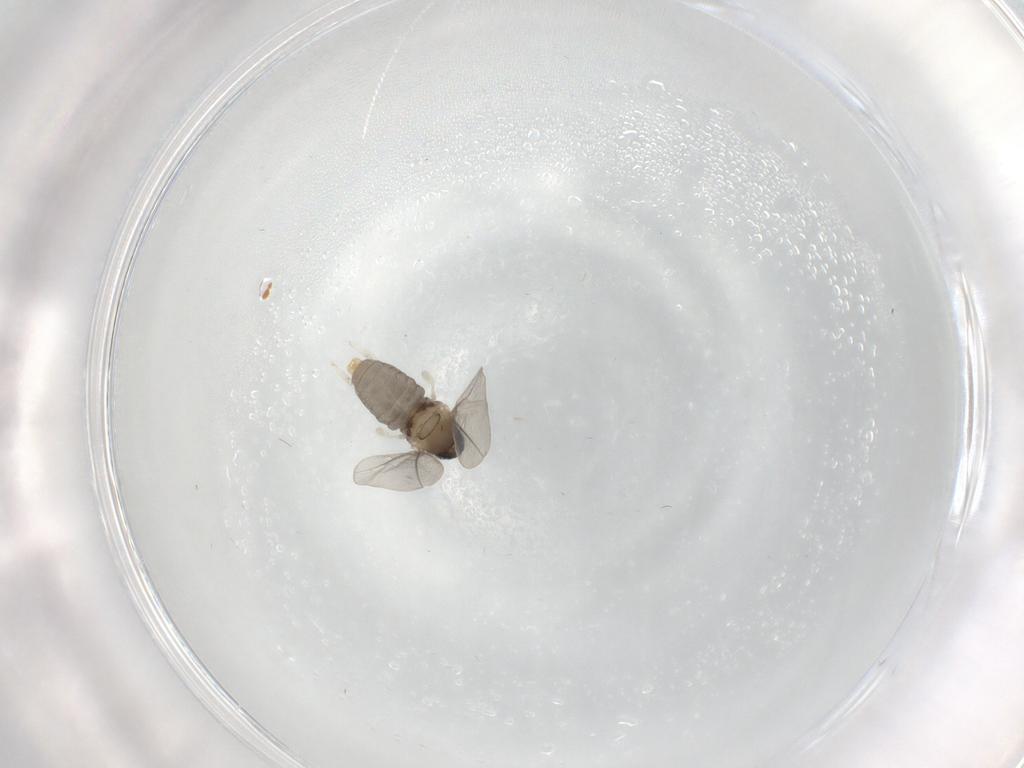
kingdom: Animalia
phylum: Arthropoda
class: Insecta
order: Diptera
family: Cecidomyiidae
